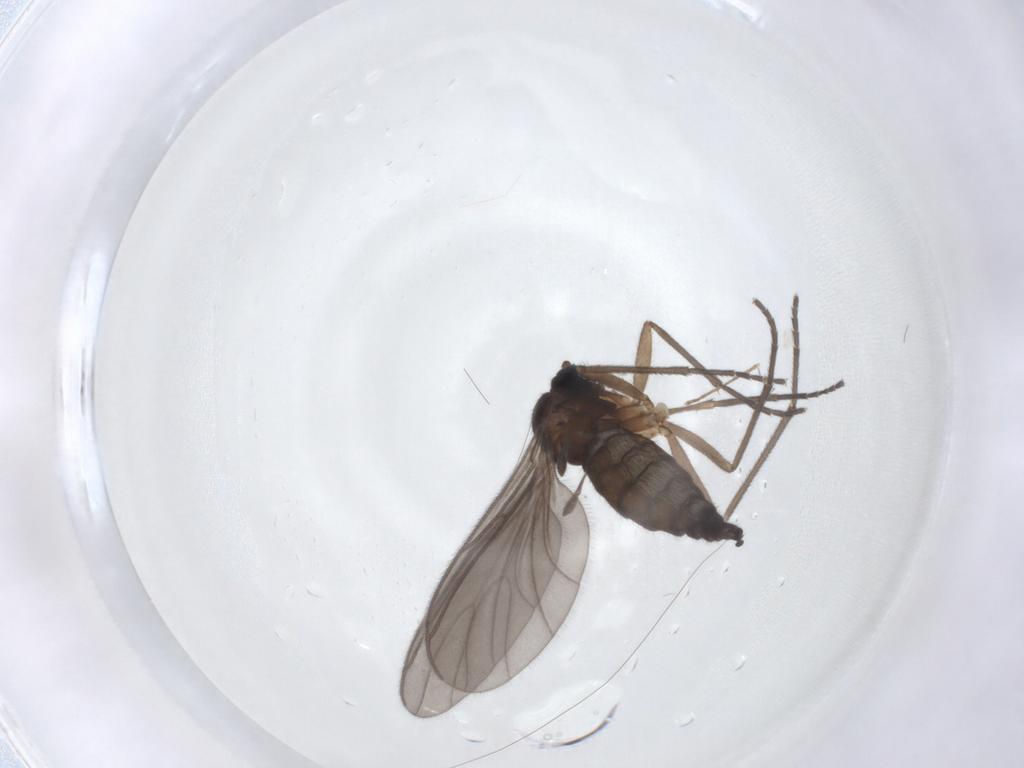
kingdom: Animalia
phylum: Arthropoda
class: Insecta
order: Diptera
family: Sciaridae
